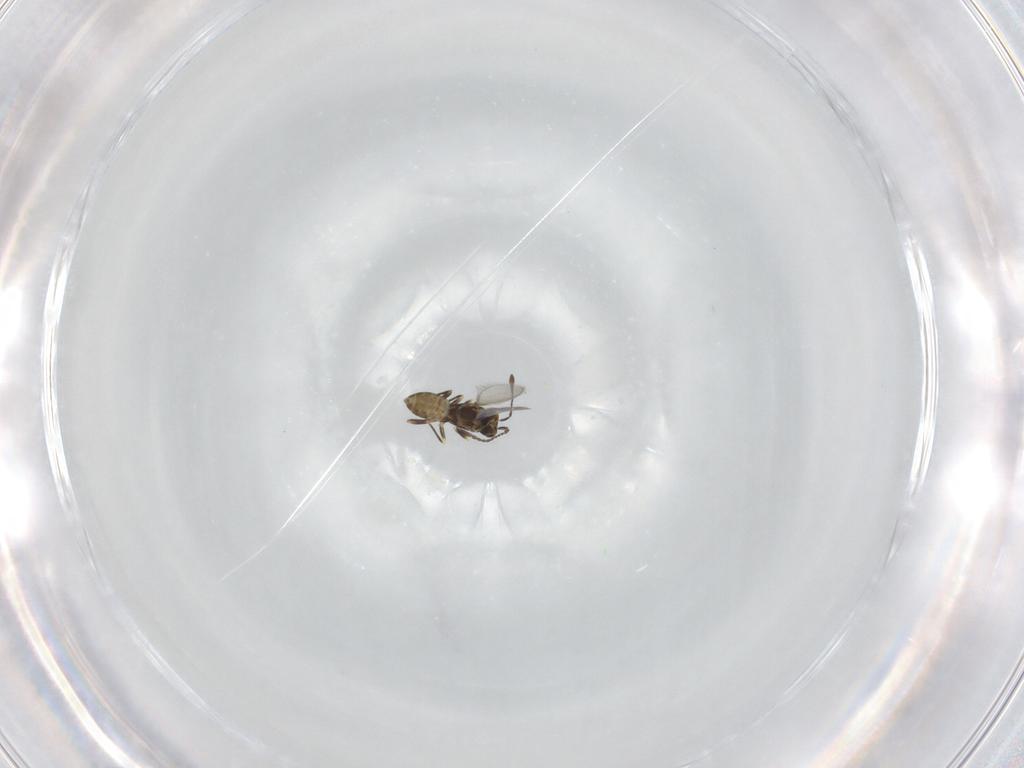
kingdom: Animalia
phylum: Arthropoda
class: Insecta
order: Hymenoptera
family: Mymaridae
